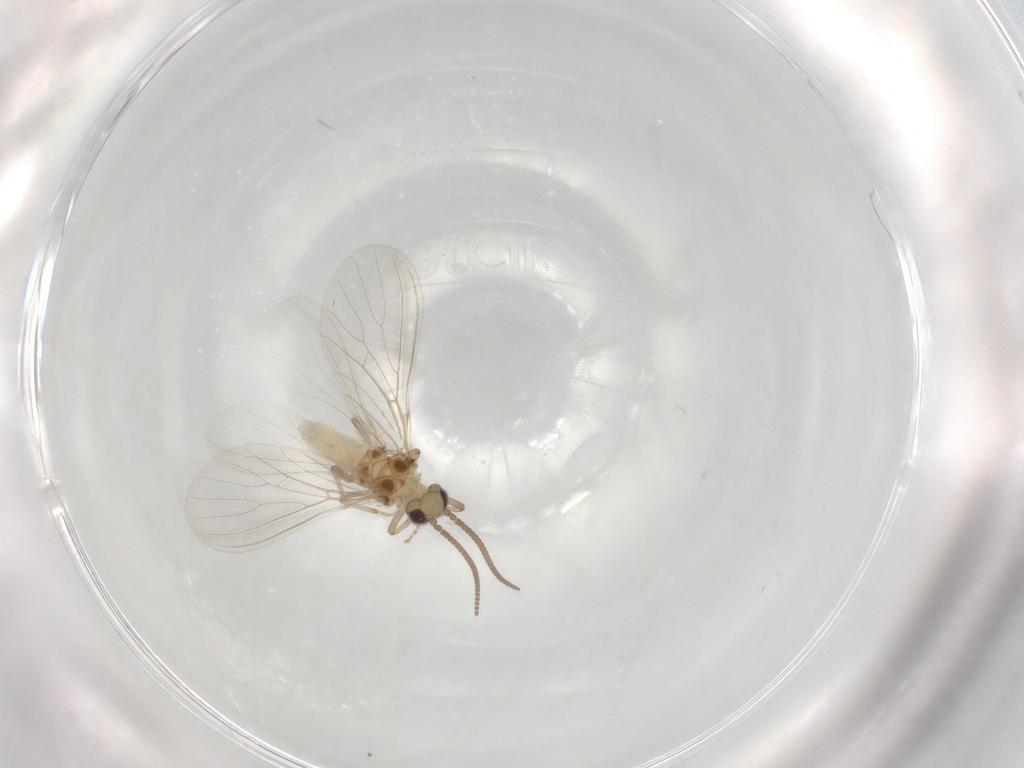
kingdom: Animalia
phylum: Arthropoda
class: Insecta
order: Neuroptera
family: Coniopterygidae
